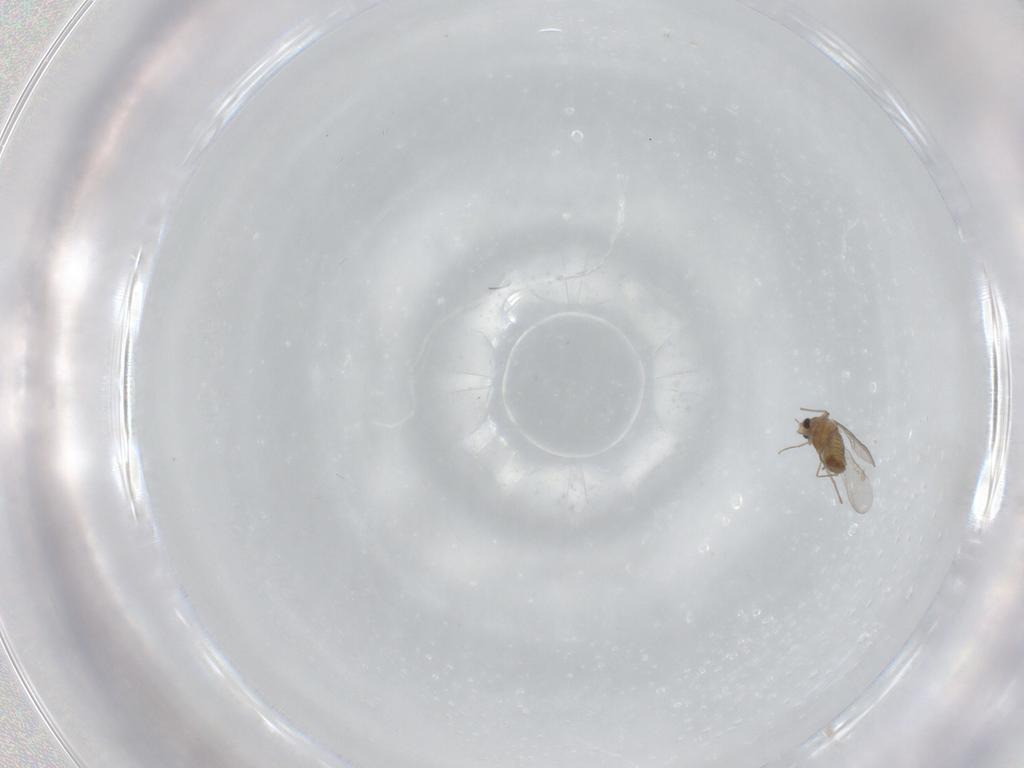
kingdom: Animalia
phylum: Arthropoda
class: Insecta
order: Diptera
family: Chironomidae
